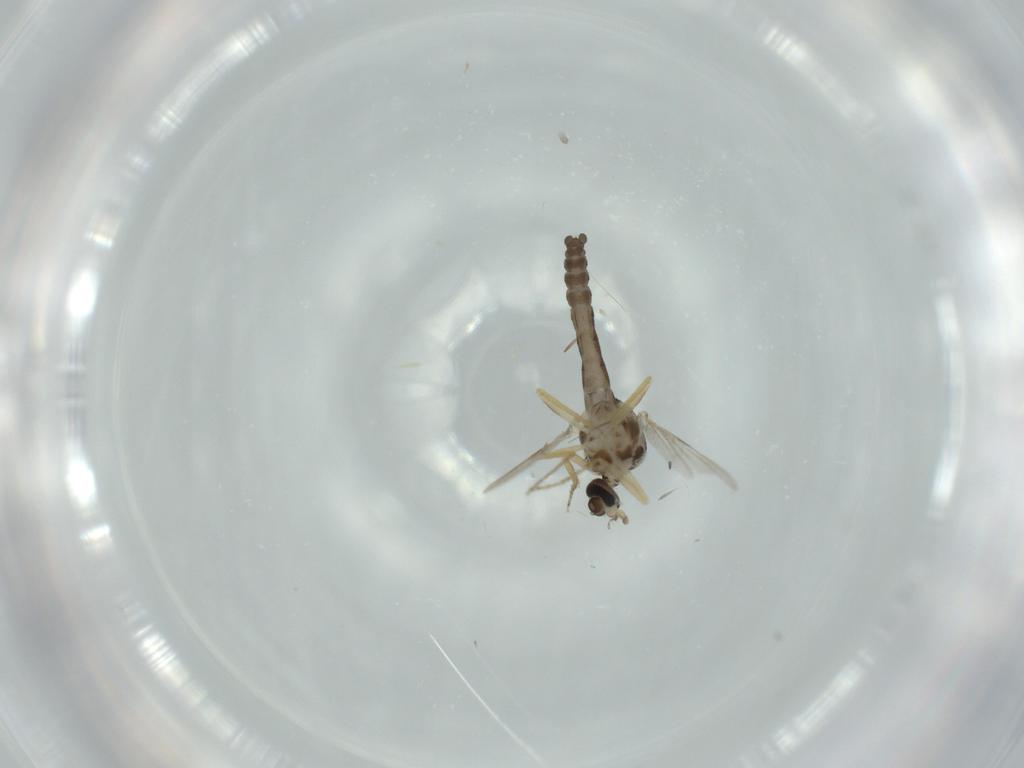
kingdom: Animalia
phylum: Arthropoda
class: Insecta
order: Diptera
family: Ceratopogonidae
